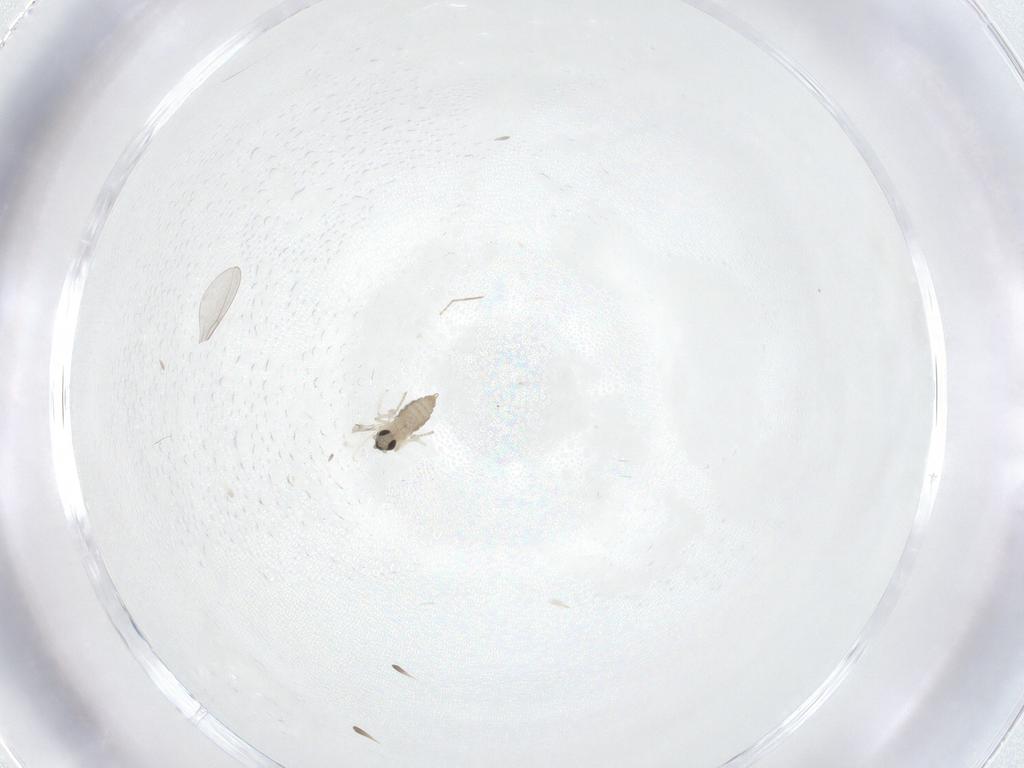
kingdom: Animalia
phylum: Arthropoda
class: Insecta
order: Diptera
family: Cecidomyiidae
